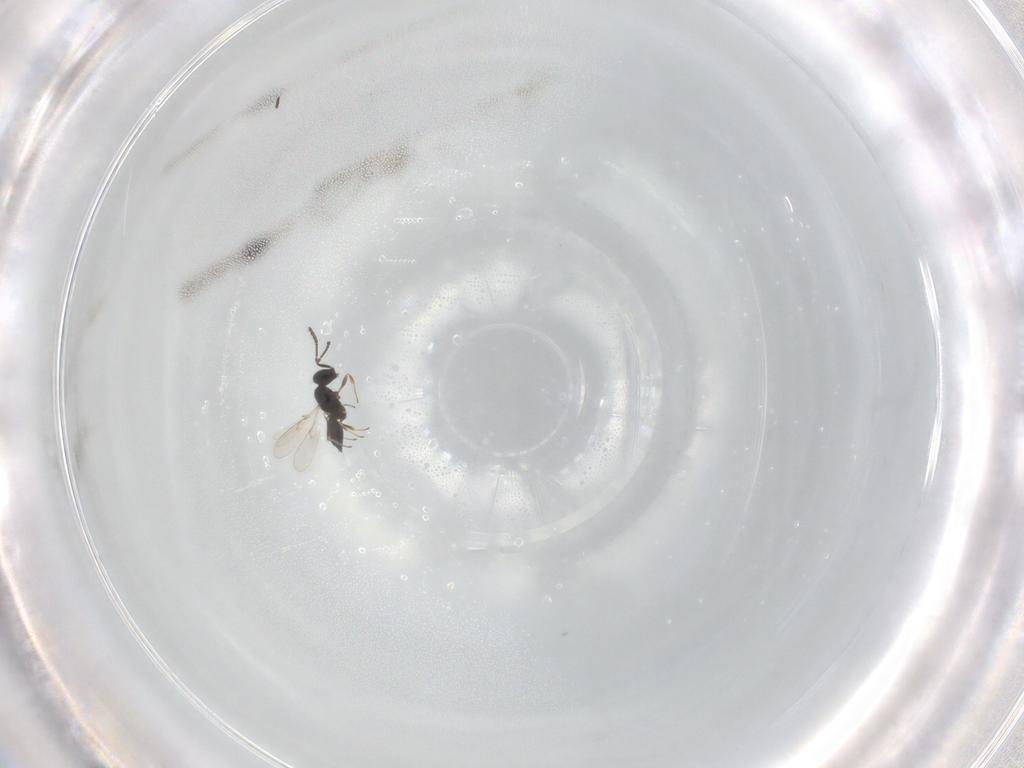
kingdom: Animalia
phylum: Arthropoda
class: Insecta
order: Hymenoptera
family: Scelionidae
